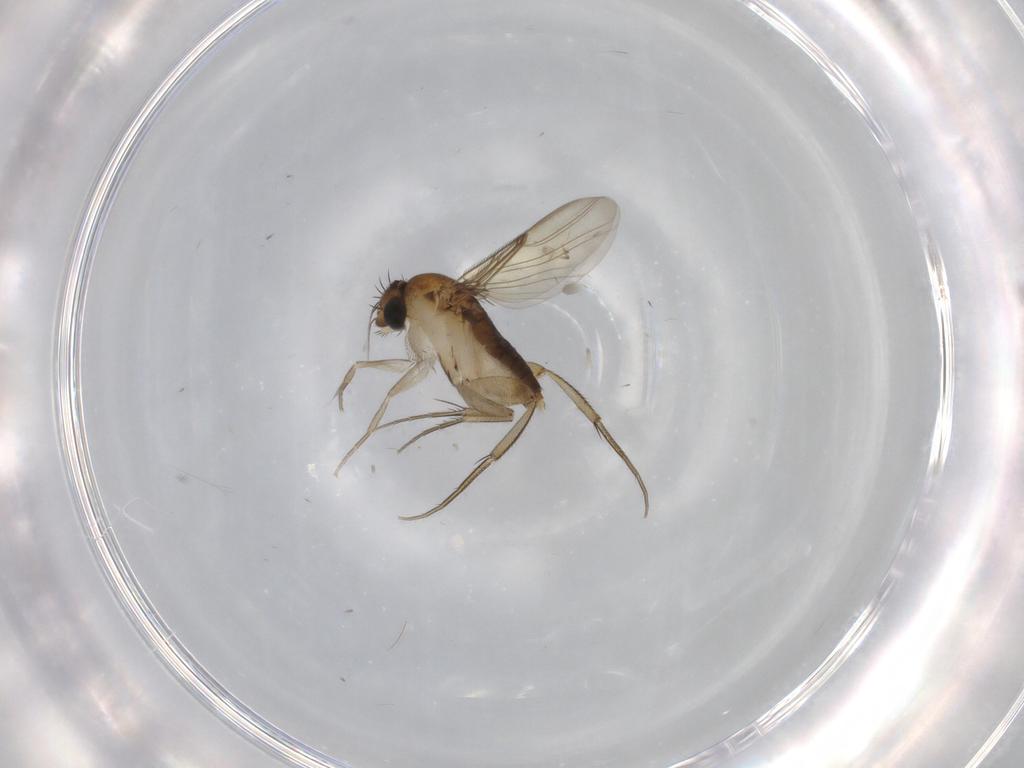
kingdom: Animalia
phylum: Arthropoda
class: Insecta
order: Diptera
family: Phoridae
